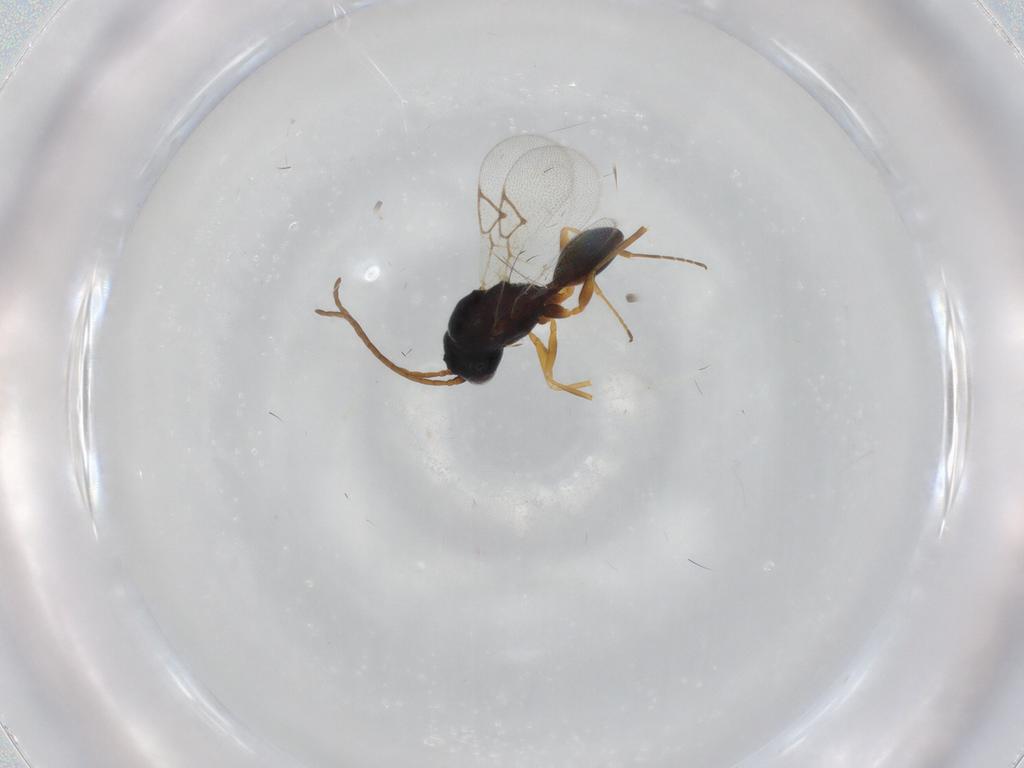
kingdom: Animalia
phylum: Arthropoda
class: Insecta
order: Hymenoptera
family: Figitidae
